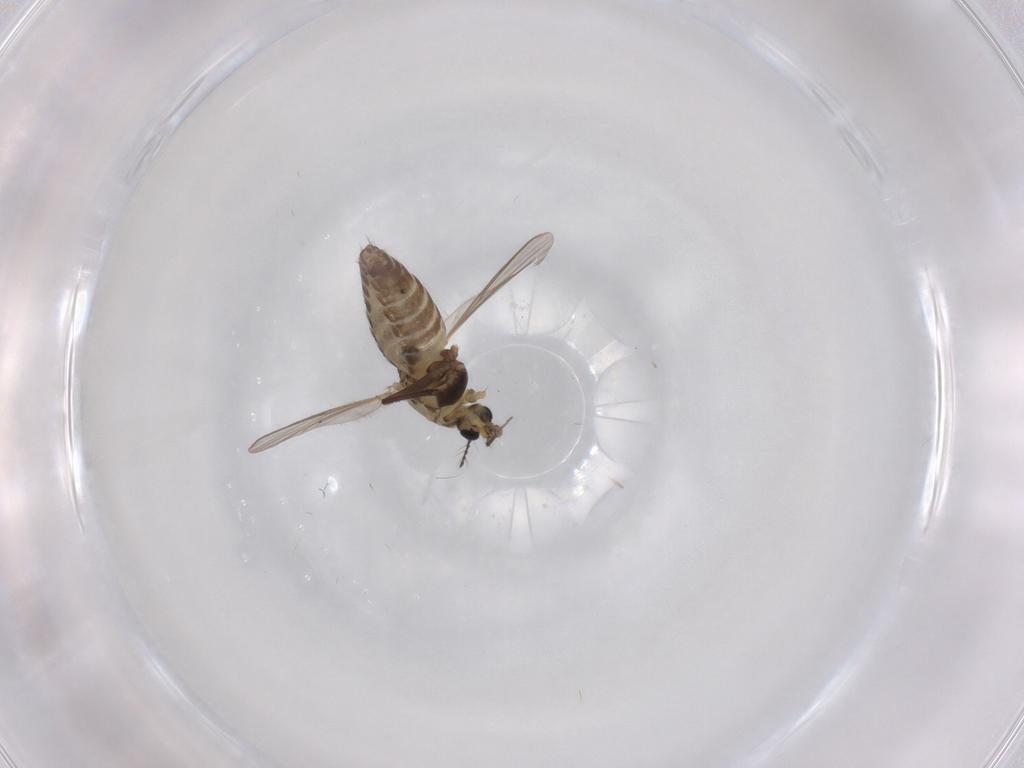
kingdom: Animalia
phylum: Arthropoda
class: Insecta
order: Diptera
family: Chironomidae
